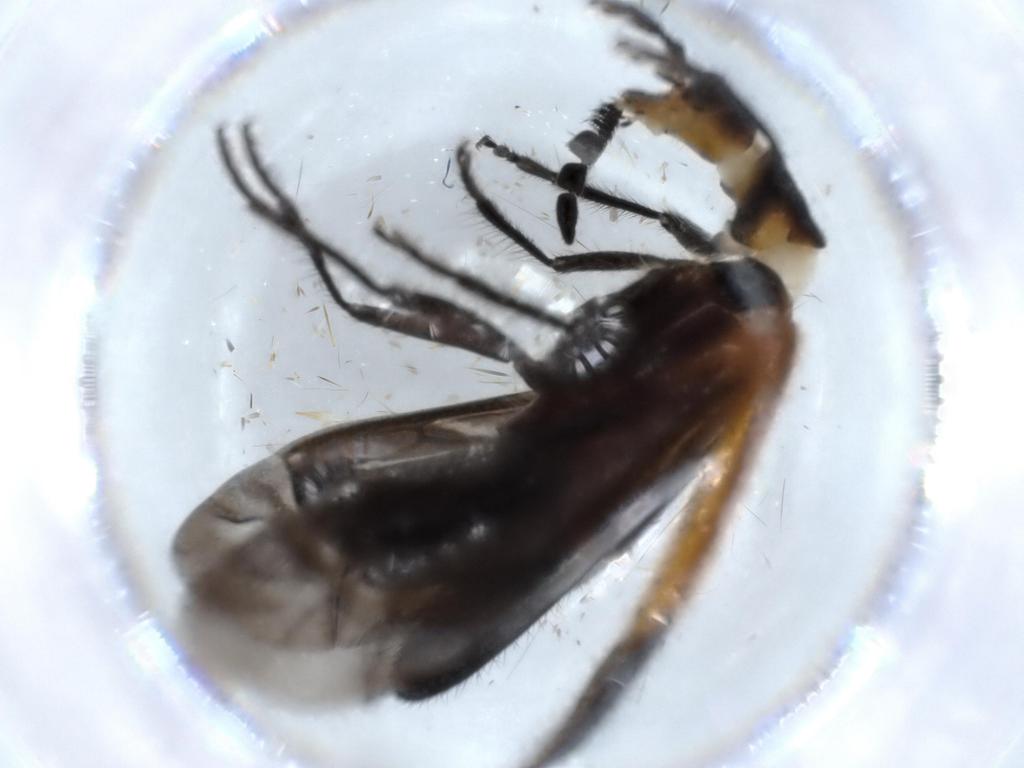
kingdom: Animalia
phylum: Arthropoda
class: Insecta
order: Coleoptera
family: Cleridae
